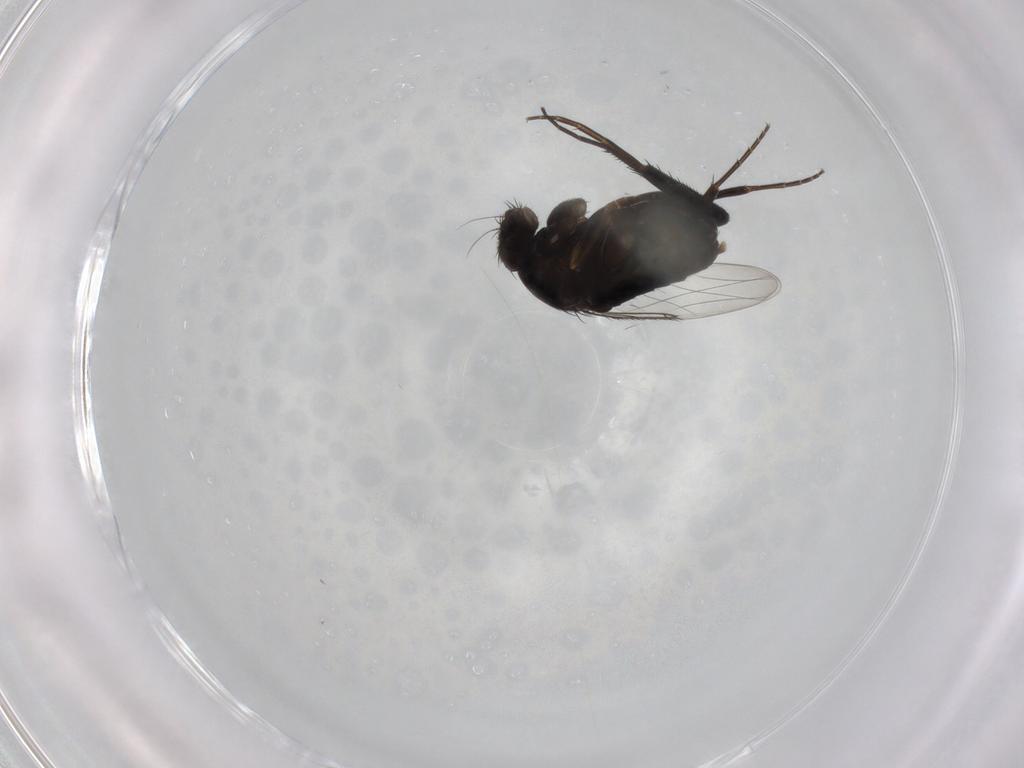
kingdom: Animalia
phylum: Arthropoda
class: Insecta
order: Diptera
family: Phoridae
